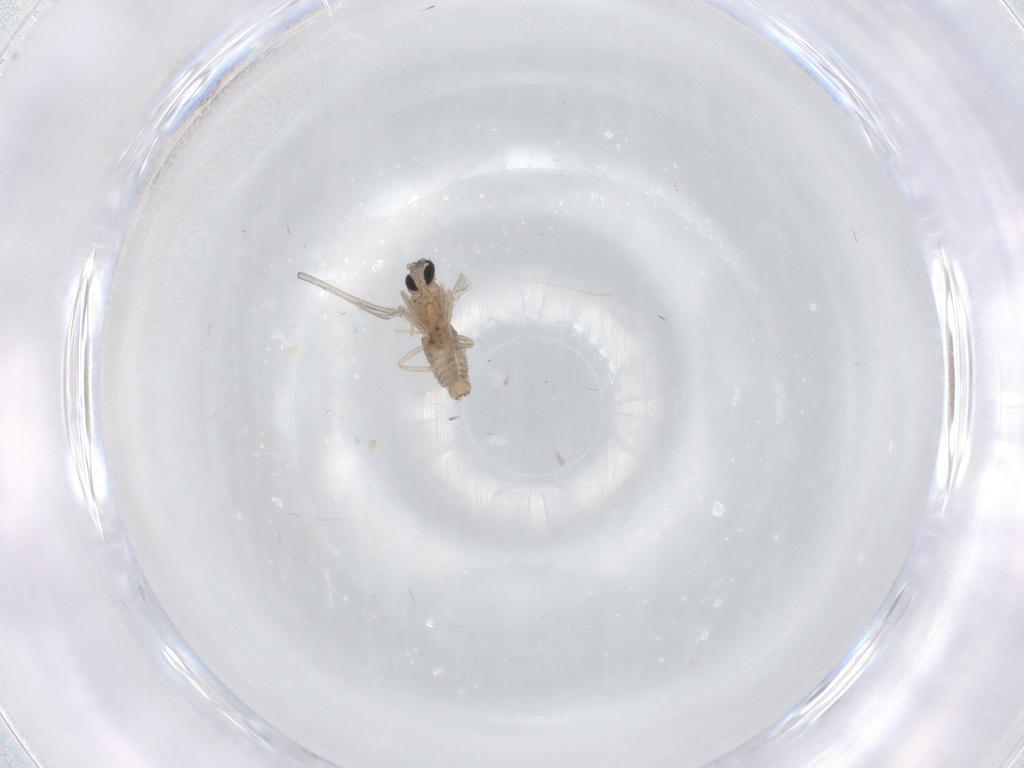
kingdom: Animalia
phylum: Arthropoda
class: Insecta
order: Diptera
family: Cecidomyiidae
